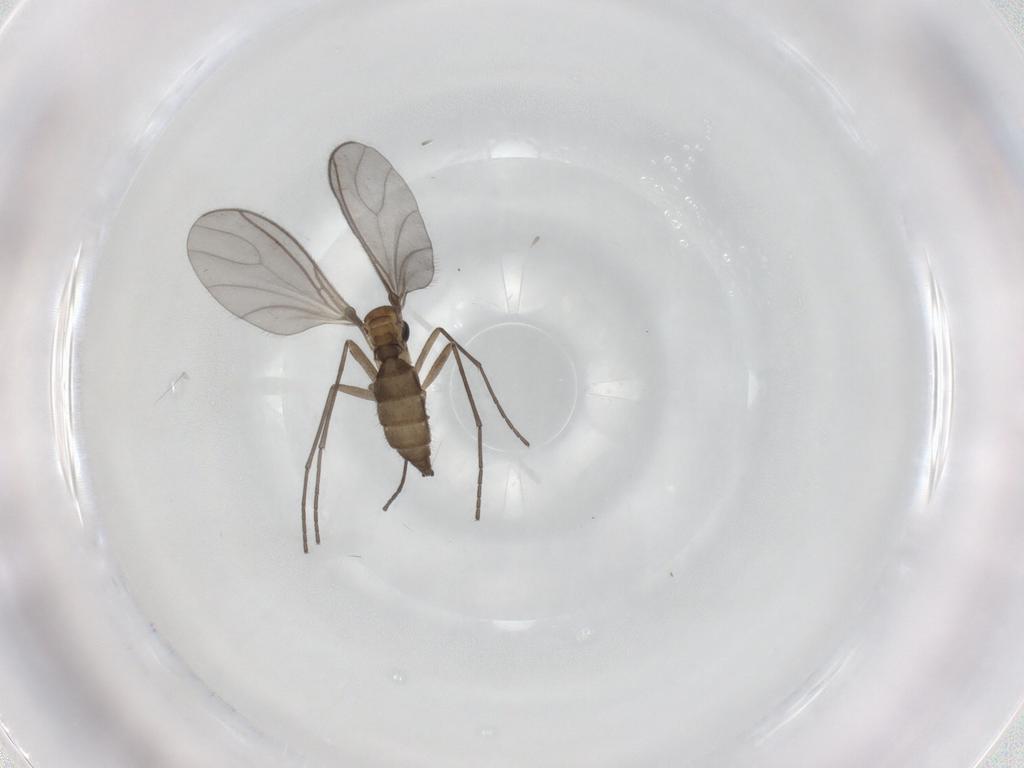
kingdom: Animalia
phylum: Arthropoda
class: Insecta
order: Diptera
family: Sciaridae
